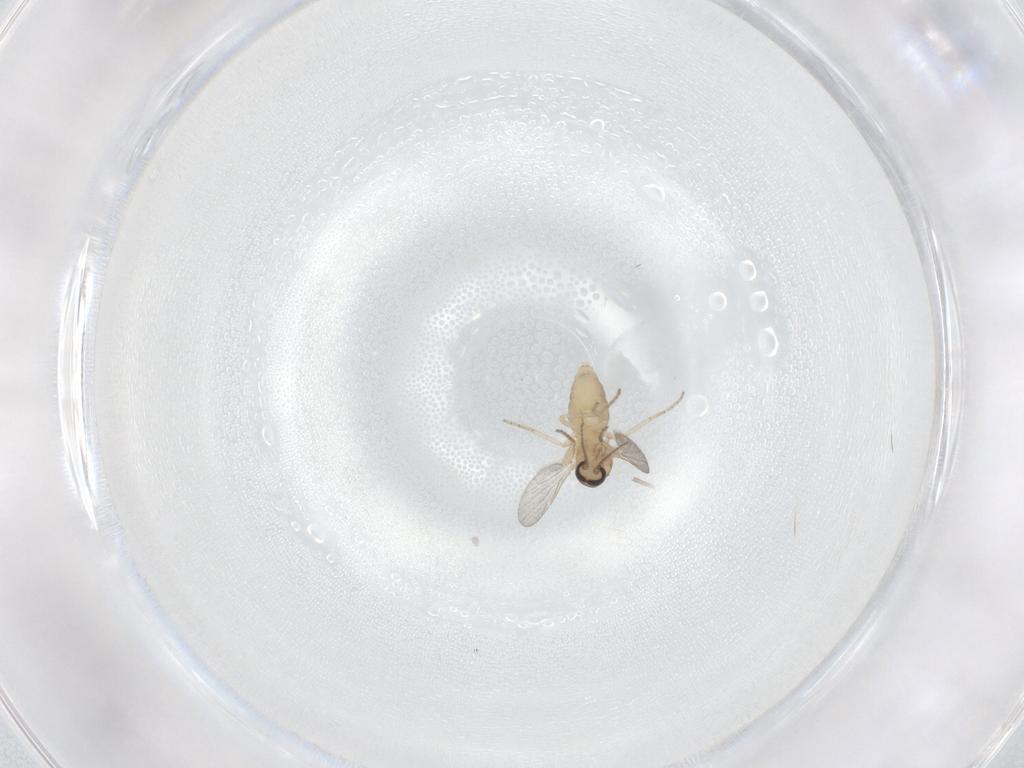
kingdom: Animalia
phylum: Arthropoda
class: Insecta
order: Diptera
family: Ceratopogonidae
